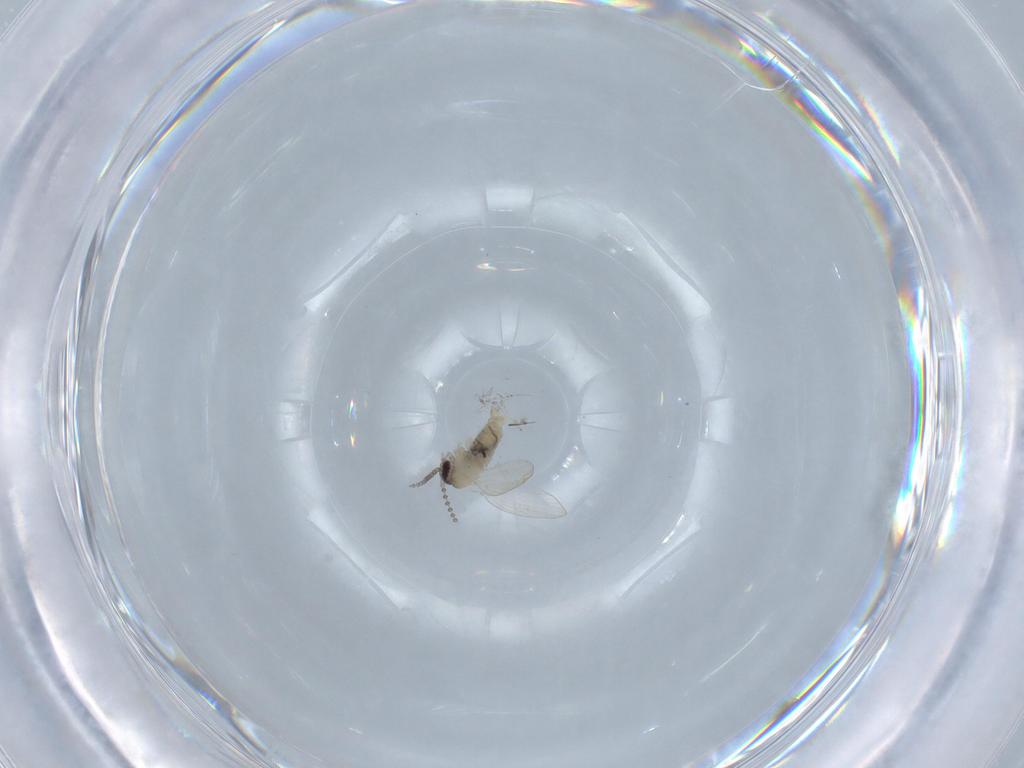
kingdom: Animalia
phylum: Arthropoda
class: Insecta
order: Diptera
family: Psychodidae
